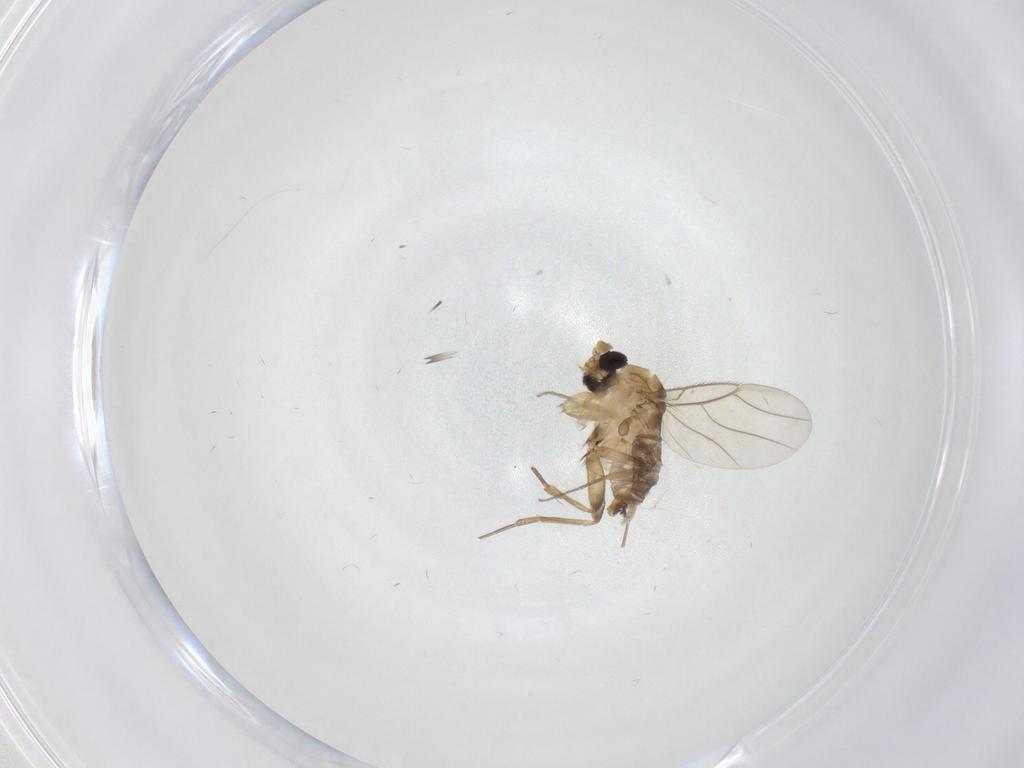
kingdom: Animalia
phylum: Arthropoda
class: Insecta
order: Diptera
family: Phoridae
